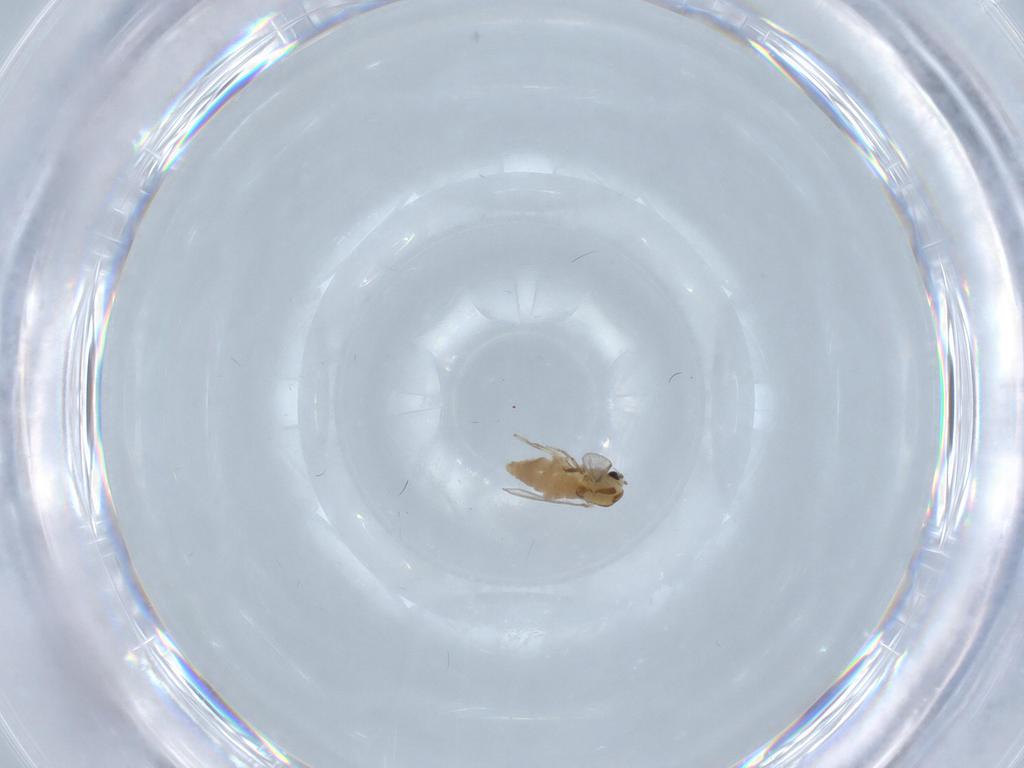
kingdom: Animalia
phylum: Arthropoda
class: Insecta
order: Diptera
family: Chironomidae
